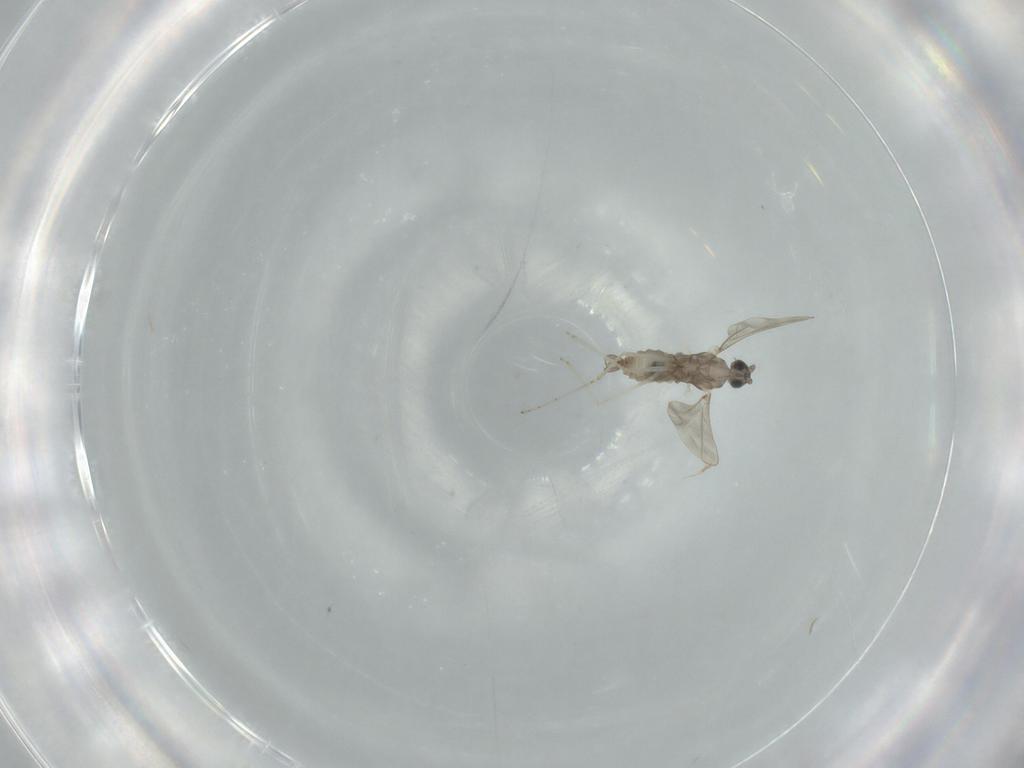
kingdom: Animalia
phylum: Arthropoda
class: Insecta
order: Diptera
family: Cecidomyiidae
